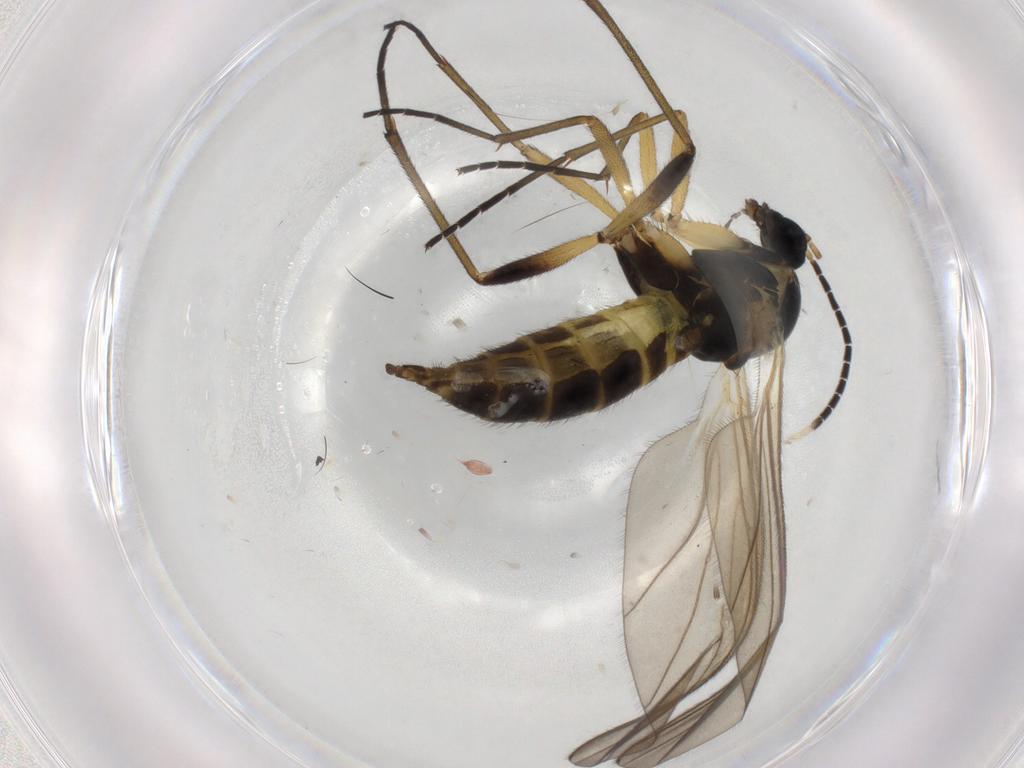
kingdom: Animalia
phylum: Arthropoda
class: Insecta
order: Diptera
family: Sciaridae
